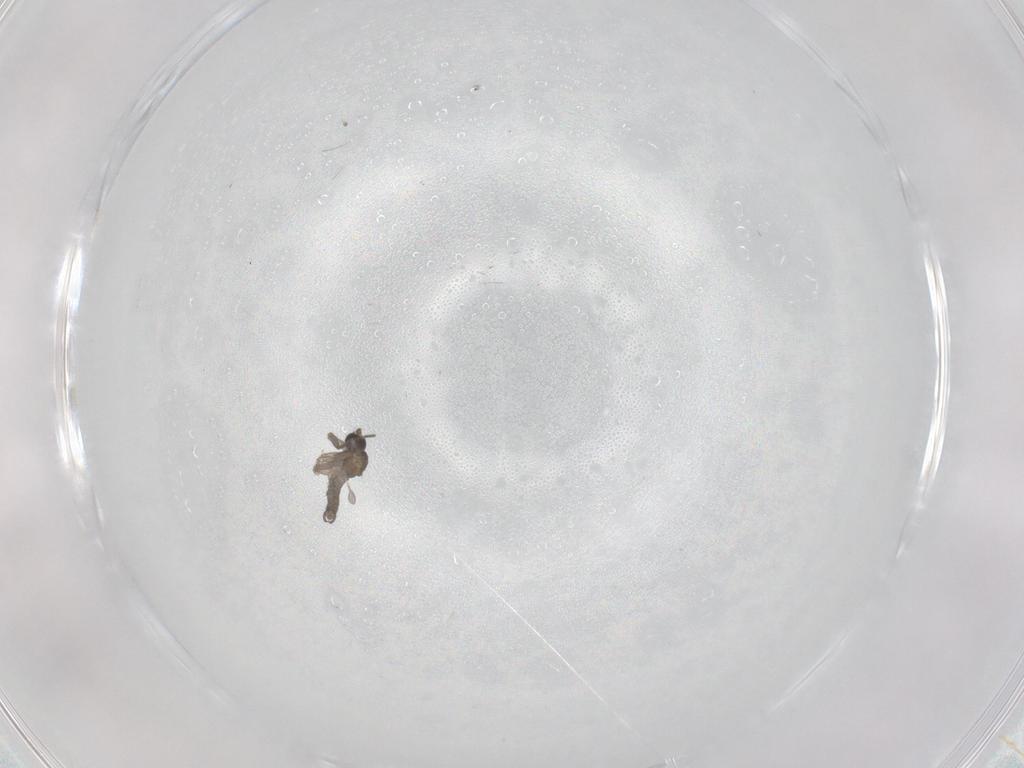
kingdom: Animalia
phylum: Arthropoda
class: Insecta
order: Diptera
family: Sciaridae
